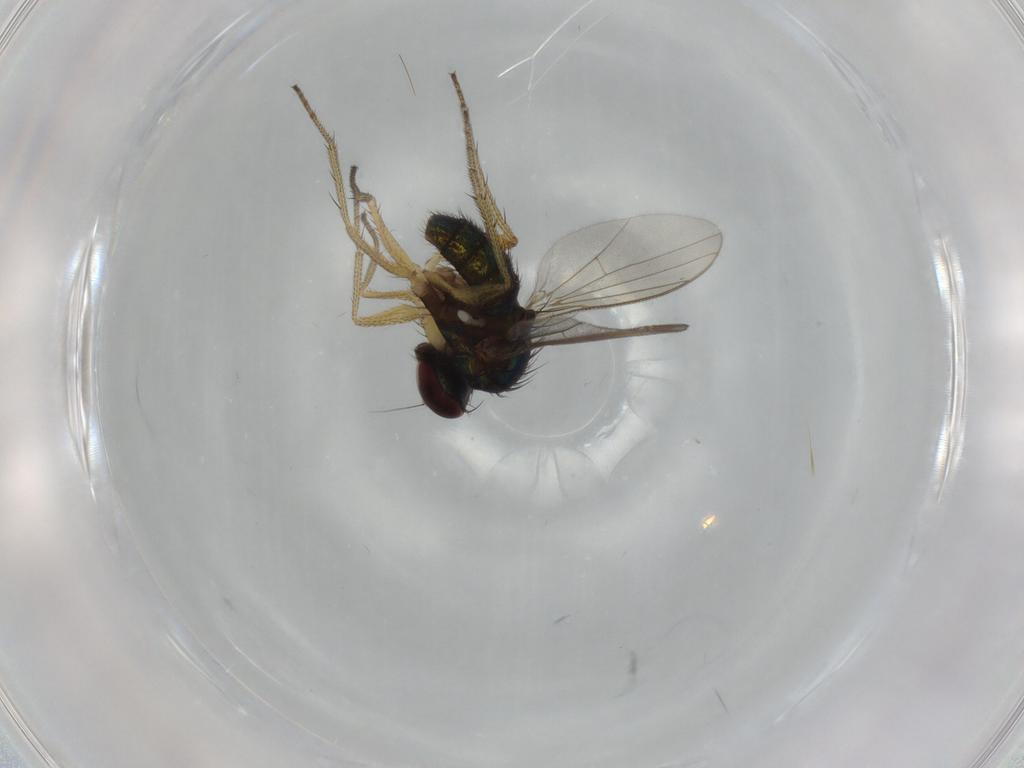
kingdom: Animalia
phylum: Arthropoda
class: Insecta
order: Diptera
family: Dolichopodidae
